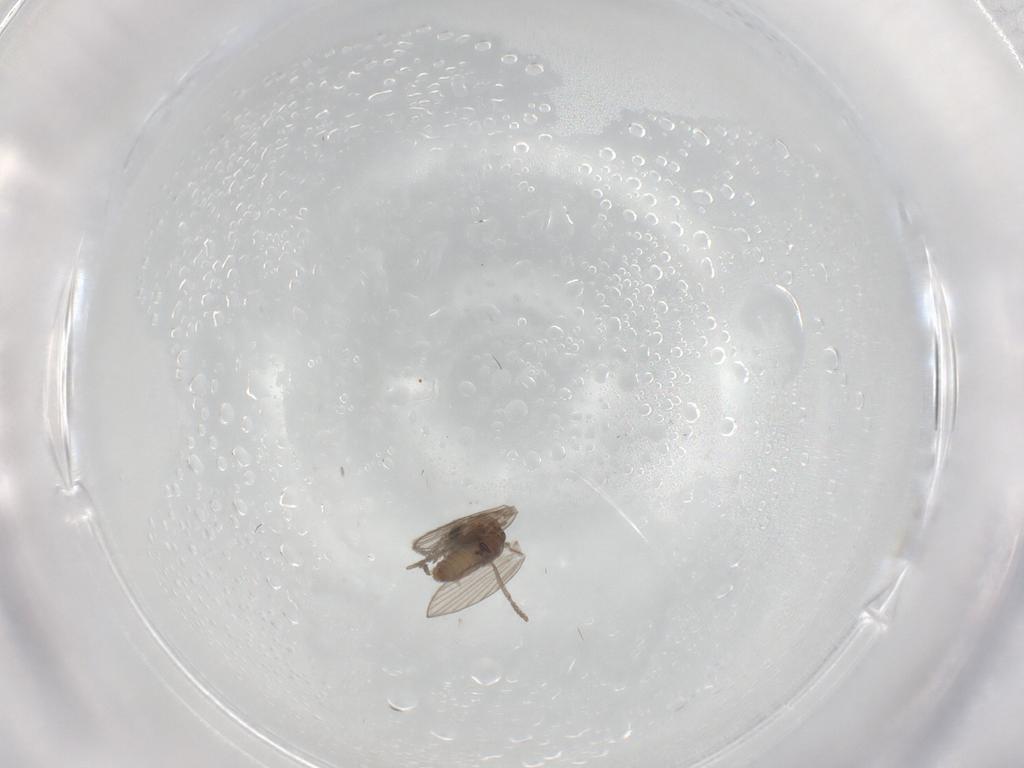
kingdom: Animalia
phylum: Arthropoda
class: Insecta
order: Diptera
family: Psychodidae
